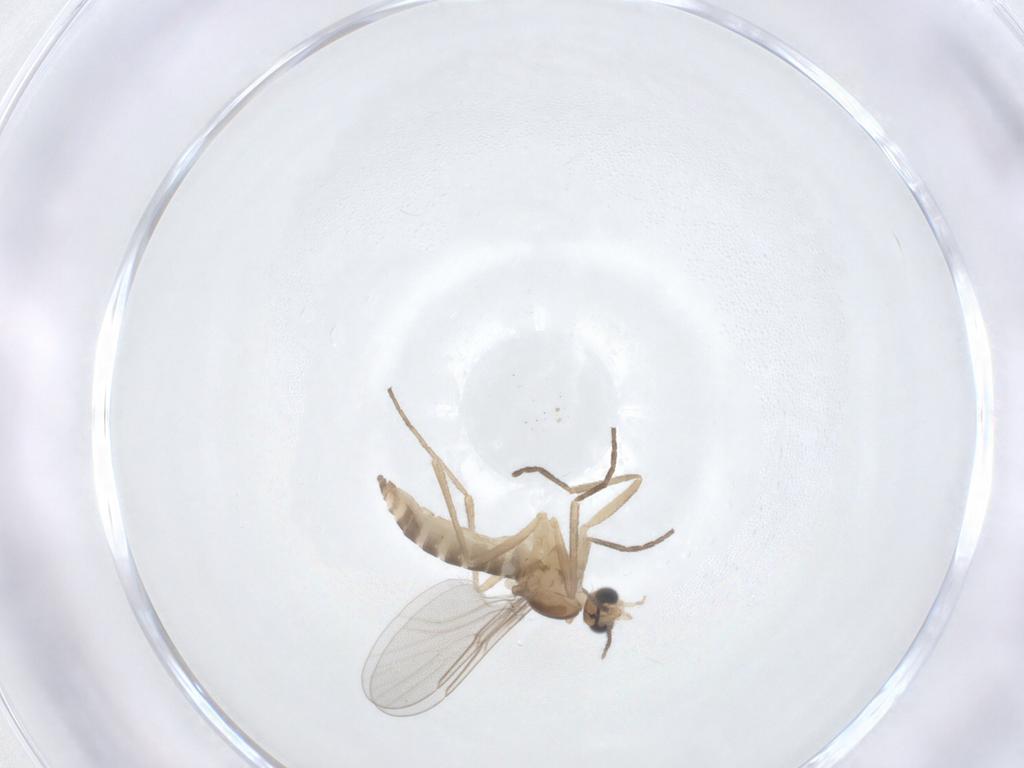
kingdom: Animalia
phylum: Arthropoda
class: Insecta
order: Diptera
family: Cecidomyiidae
